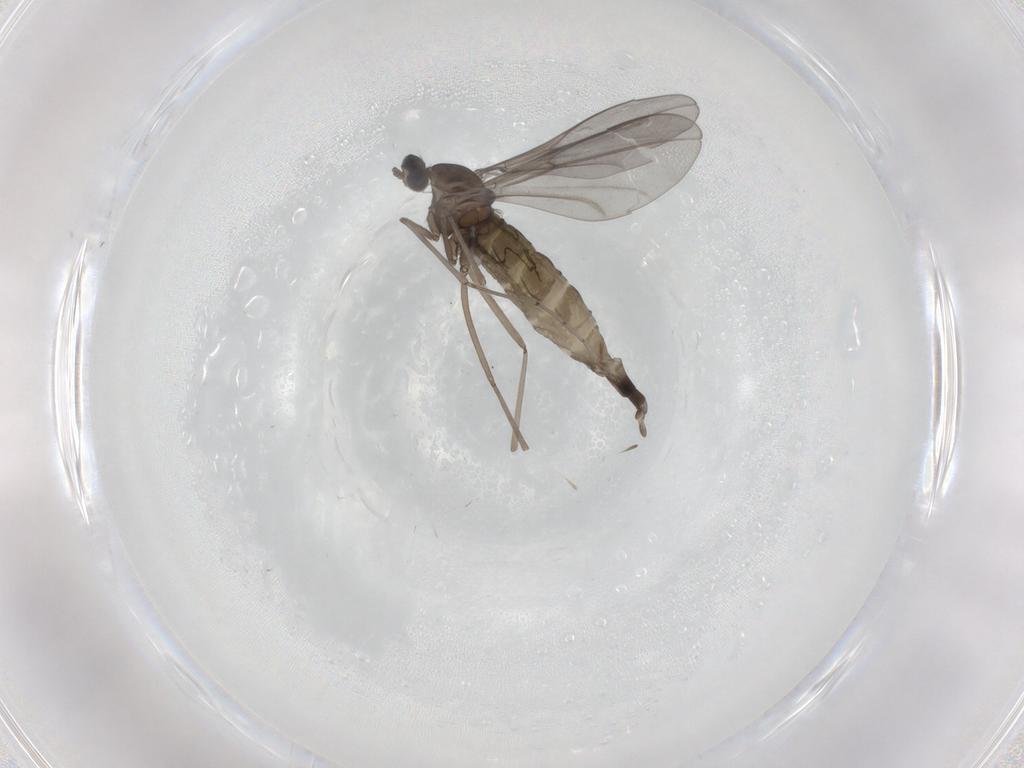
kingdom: Animalia
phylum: Arthropoda
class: Insecta
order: Diptera
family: Cecidomyiidae
